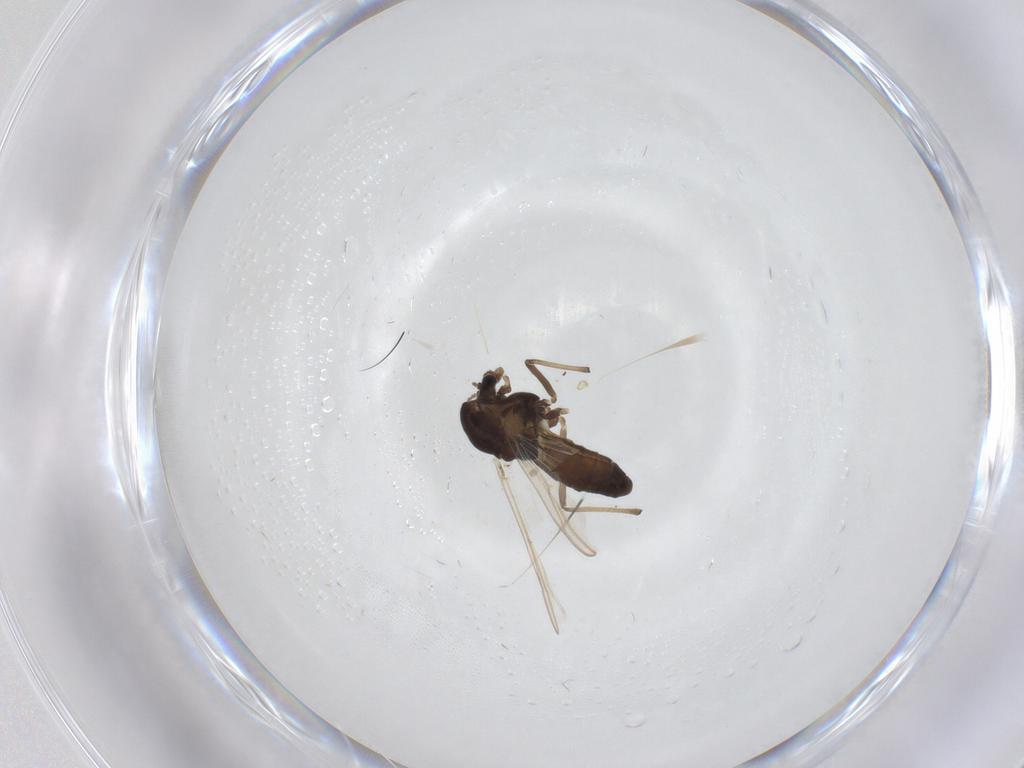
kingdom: Animalia
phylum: Arthropoda
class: Insecta
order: Diptera
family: Chironomidae
